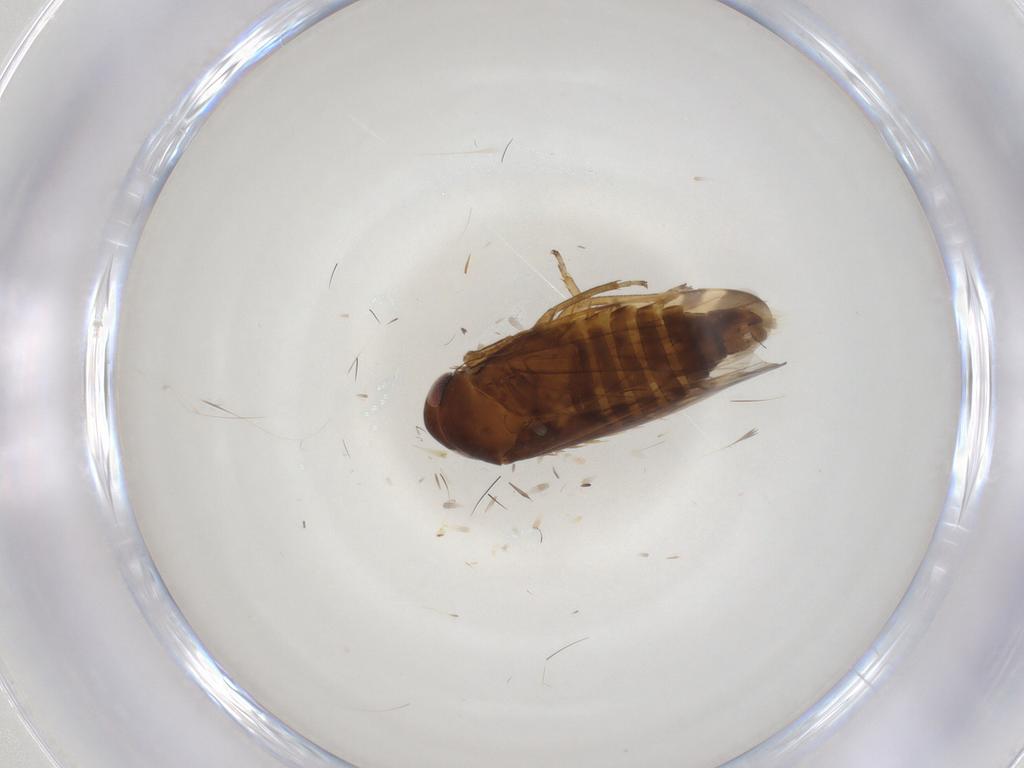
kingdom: Animalia
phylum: Arthropoda
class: Insecta
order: Hemiptera
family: Cicadellidae
